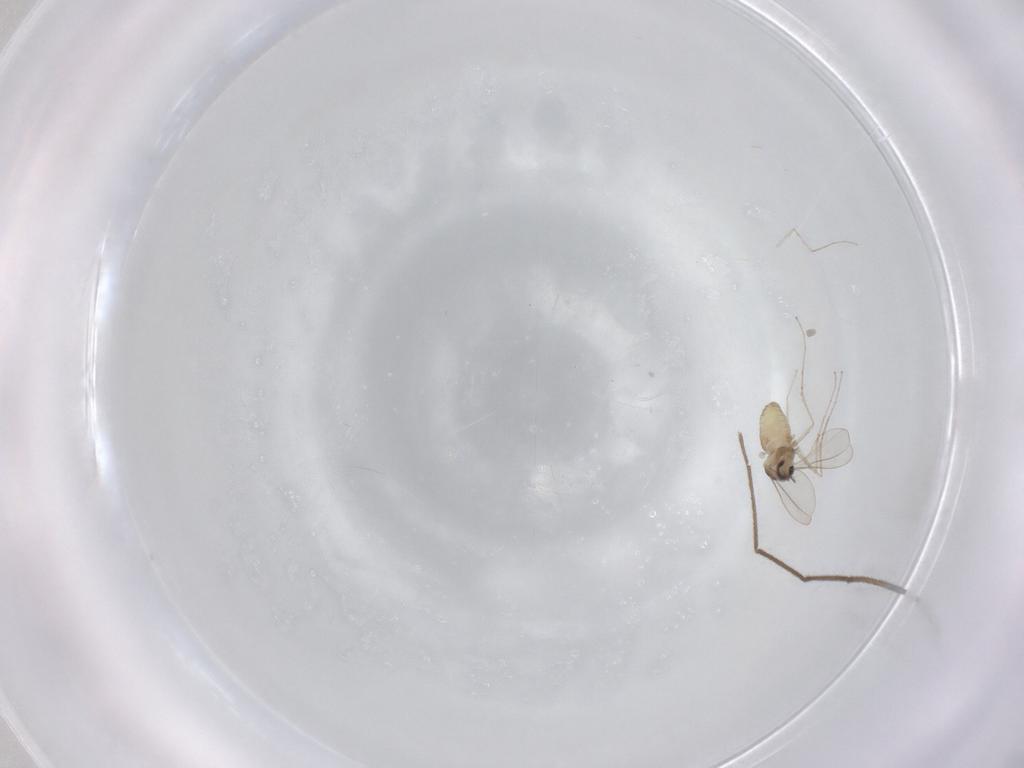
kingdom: Animalia
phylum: Arthropoda
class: Insecta
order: Diptera
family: Cecidomyiidae
